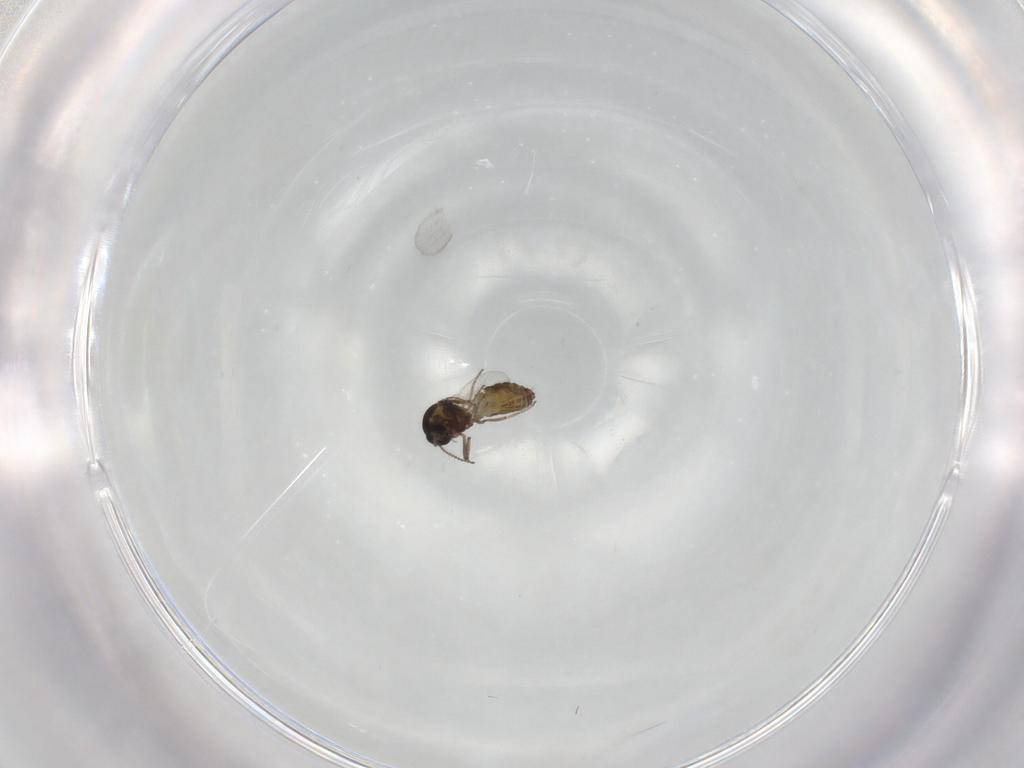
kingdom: Animalia
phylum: Arthropoda
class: Insecta
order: Diptera
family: Ceratopogonidae
